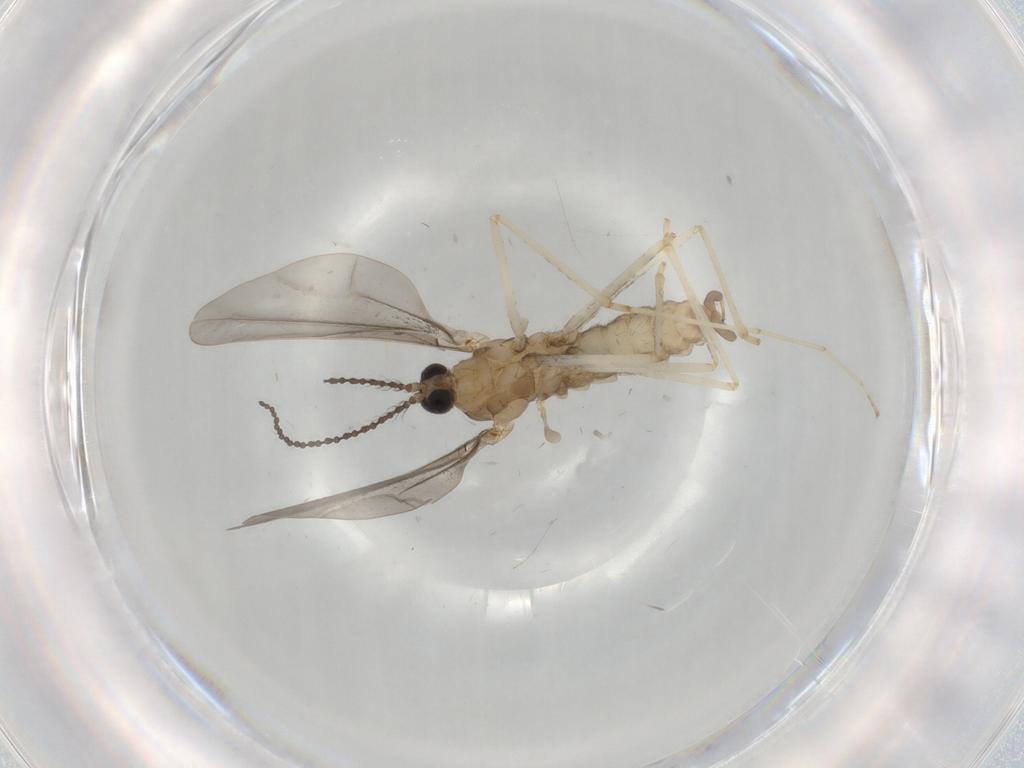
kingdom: Animalia
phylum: Arthropoda
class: Insecta
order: Diptera
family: Cecidomyiidae
